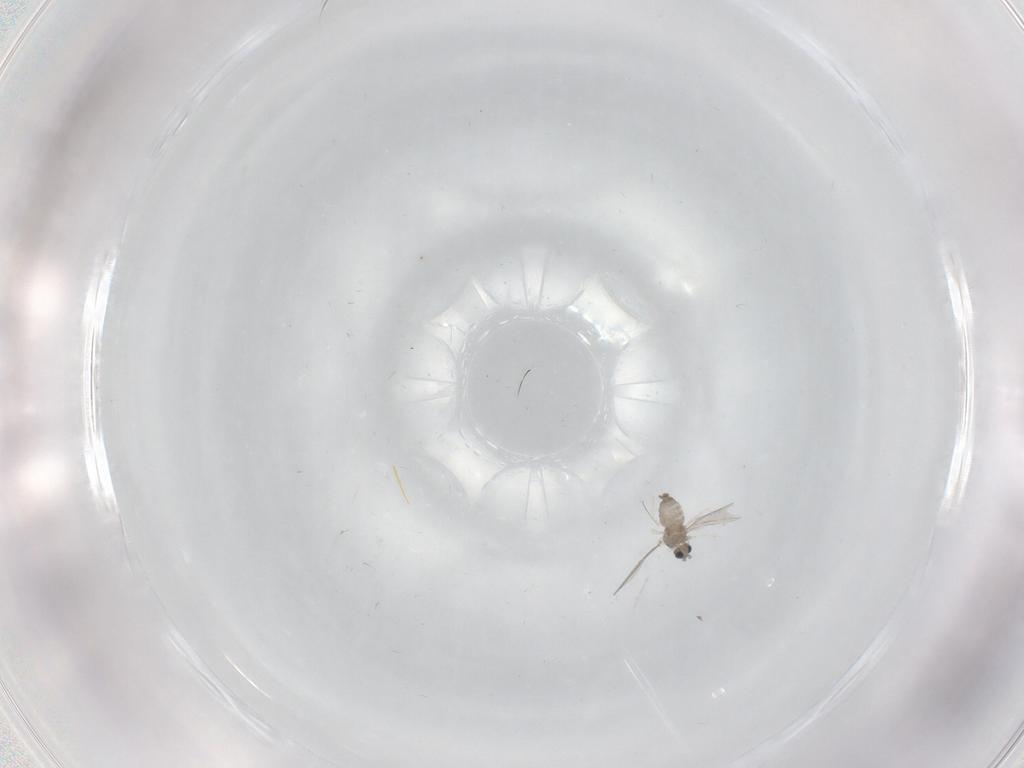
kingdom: Animalia
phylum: Arthropoda
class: Insecta
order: Diptera
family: Cecidomyiidae
